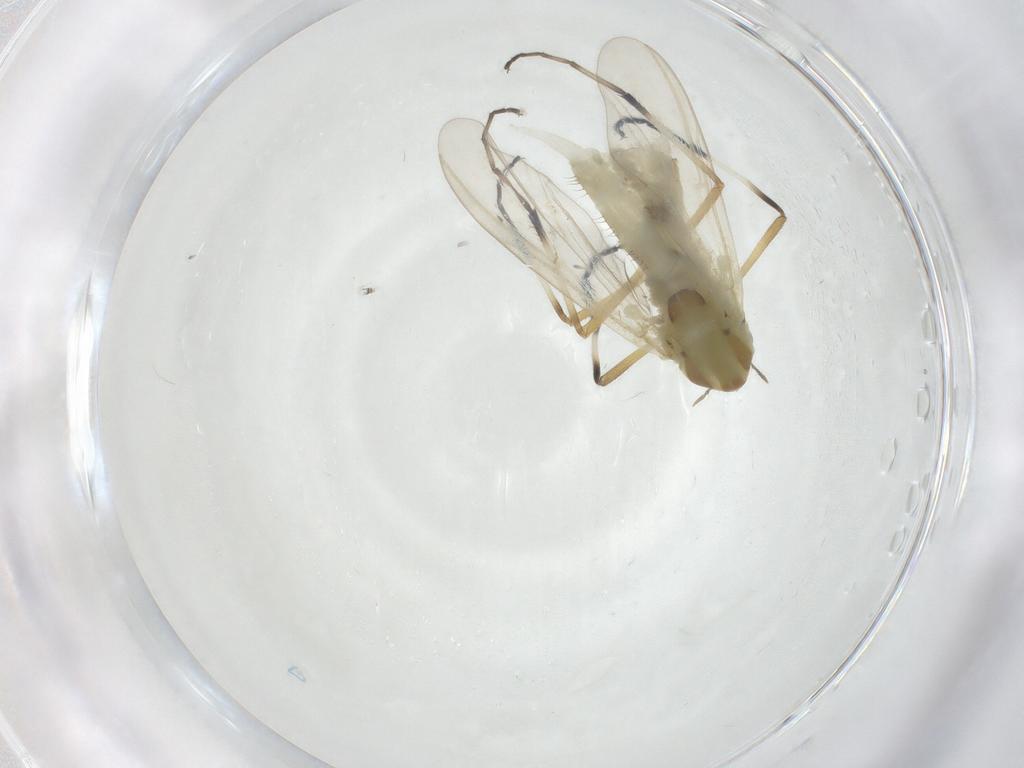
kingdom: Animalia
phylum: Arthropoda
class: Insecta
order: Diptera
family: Chironomidae
